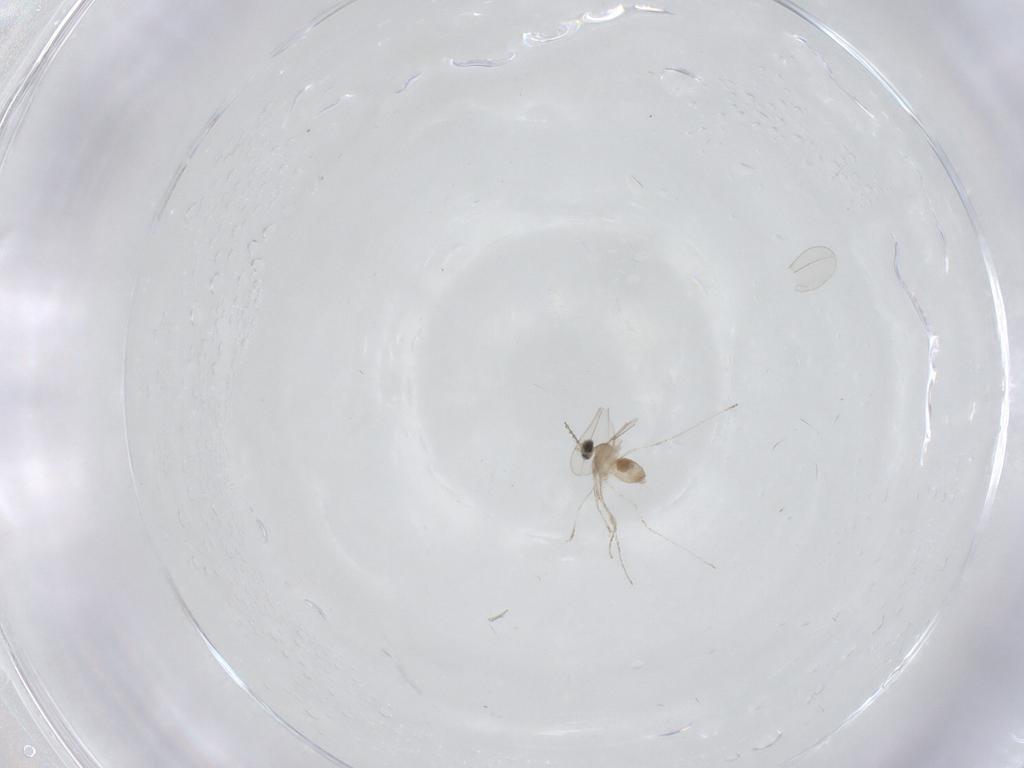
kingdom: Animalia
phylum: Arthropoda
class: Insecta
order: Diptera
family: Cecidomyiidae
